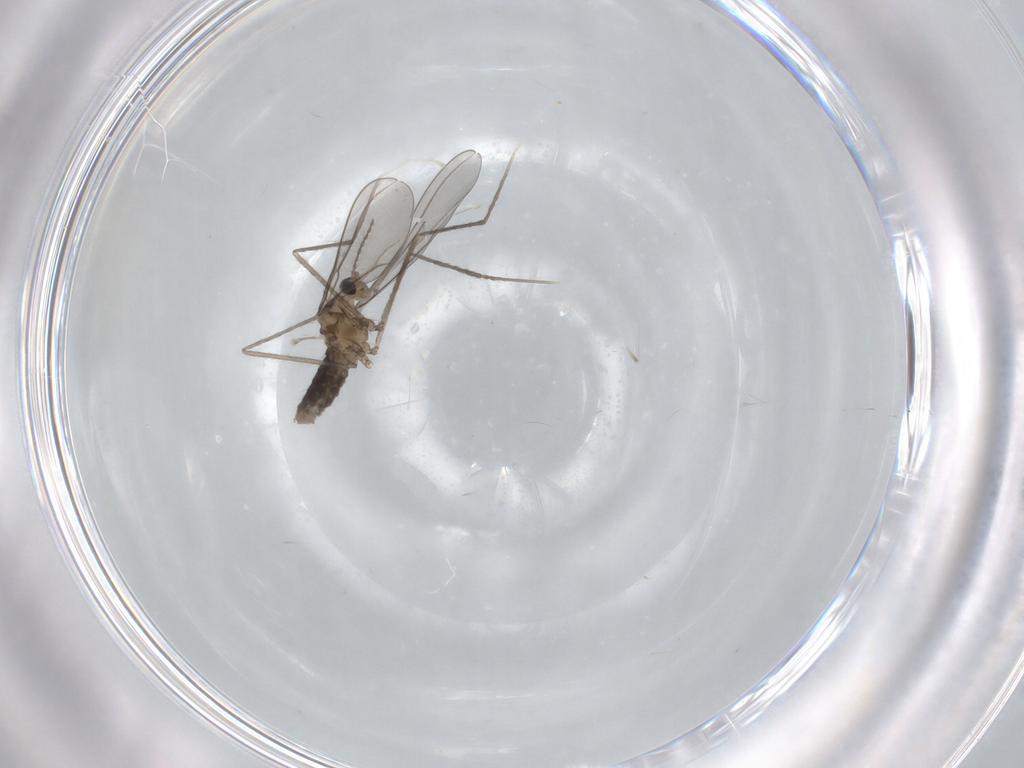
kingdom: Animalia
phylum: Arthropoda
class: Insecta
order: Diptera
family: Cecidomyiidae
